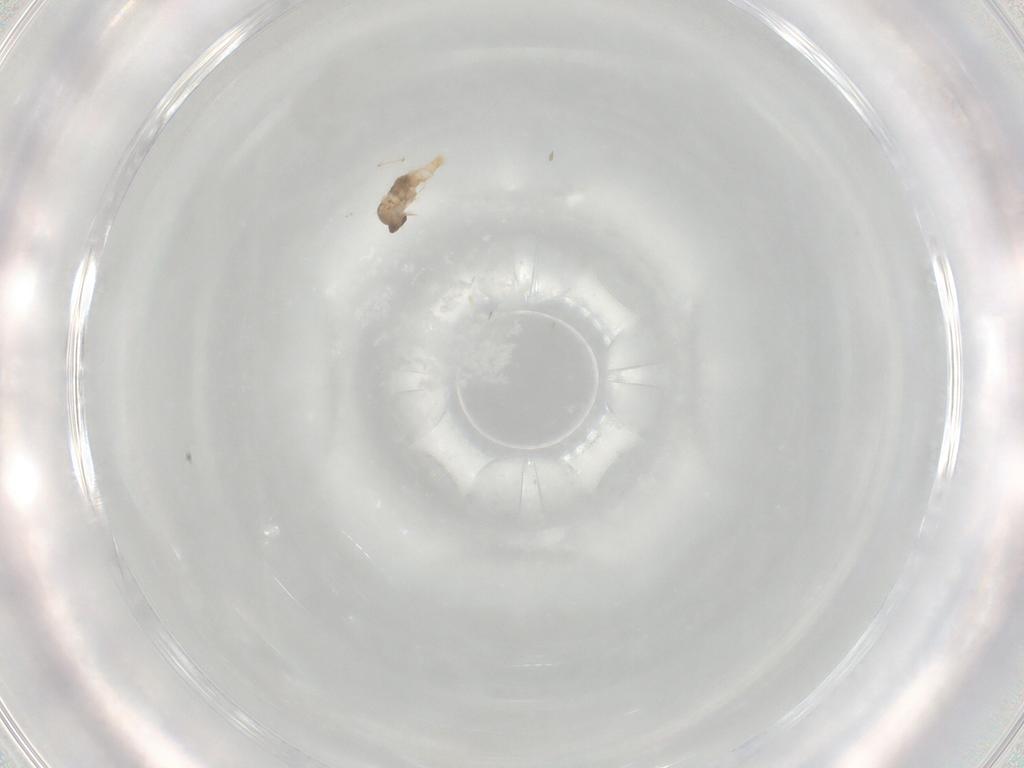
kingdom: Animalia
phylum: Arthropoda
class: Insecta
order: Diptera
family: Syrphidae
